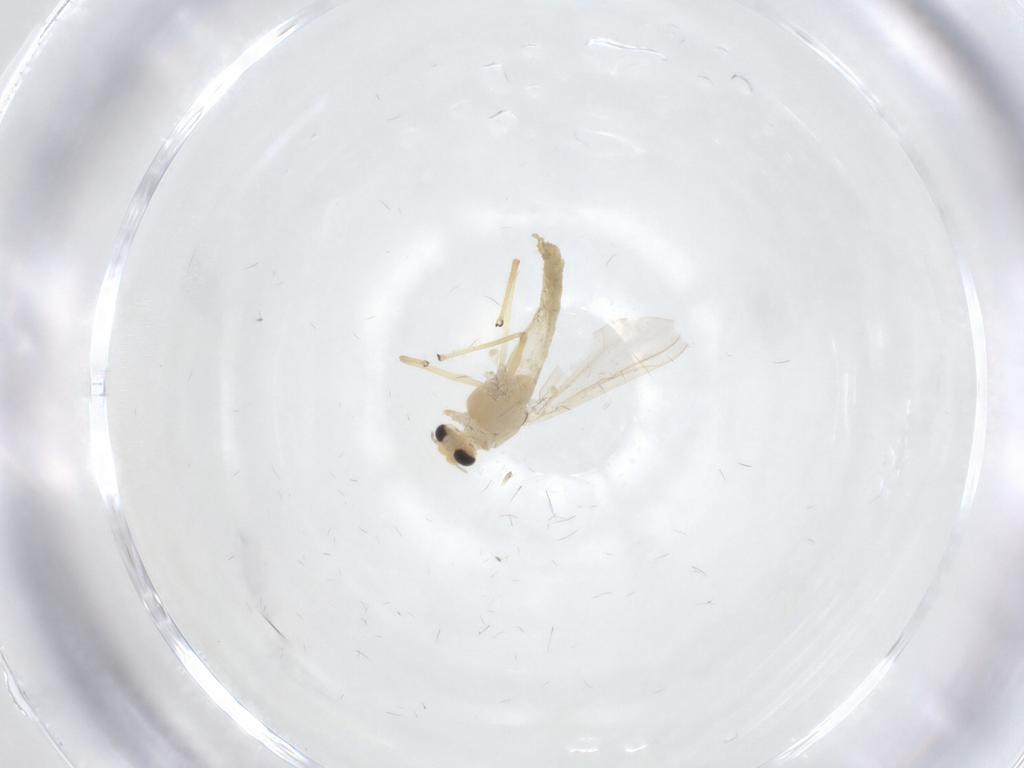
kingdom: Animalia
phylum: Arthropoda
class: Insecta
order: Diptera
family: Chironomidae
